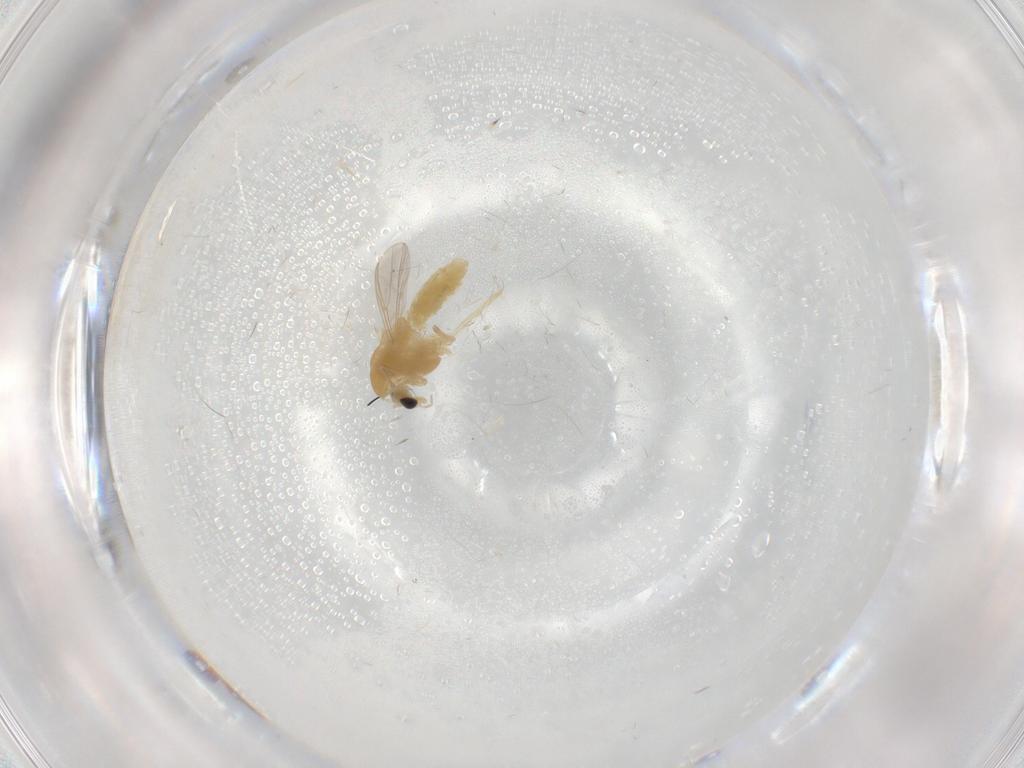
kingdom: Animalia
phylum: Arthropoda
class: Insecta
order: Diptera
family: Chironomidae
